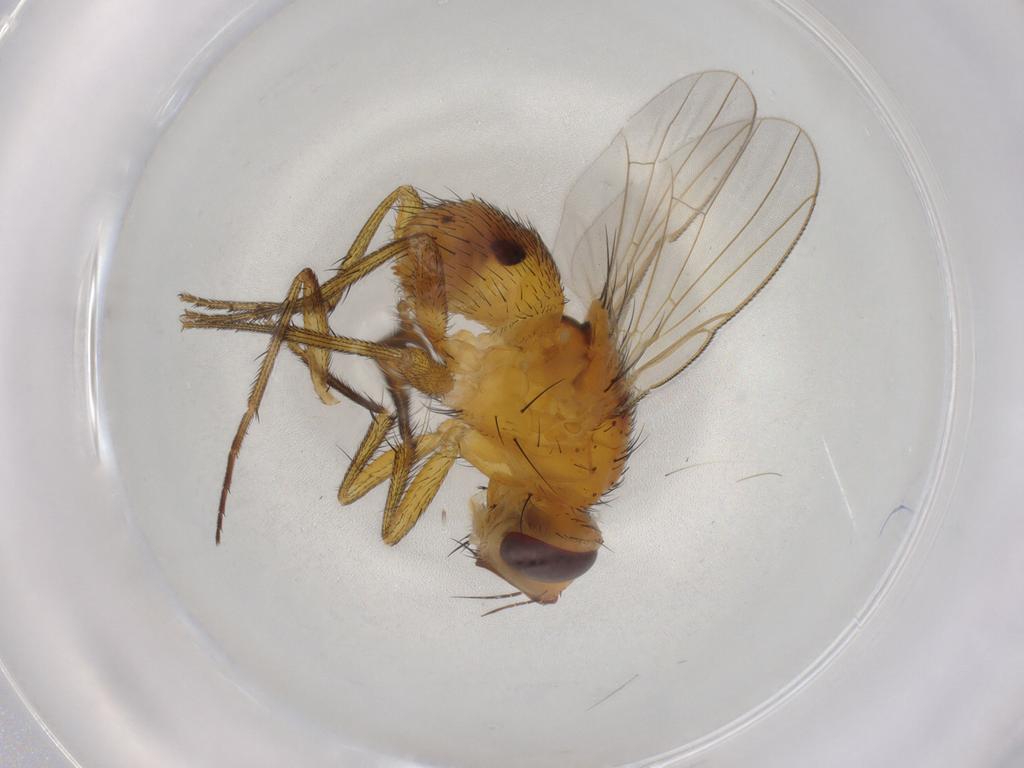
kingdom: Animalia
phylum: Arthropoda
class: Insecta
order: Diptera
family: Muscidae
